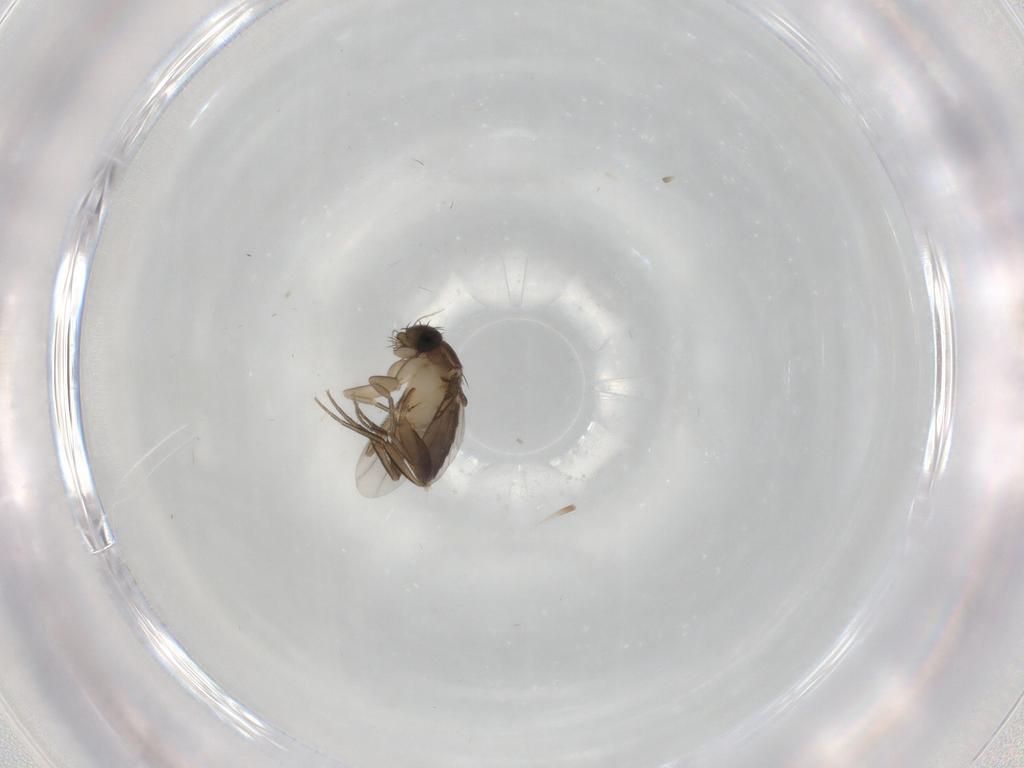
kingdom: Animalia
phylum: Arthropoda
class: Insecta
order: Diptera
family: Phoridae
